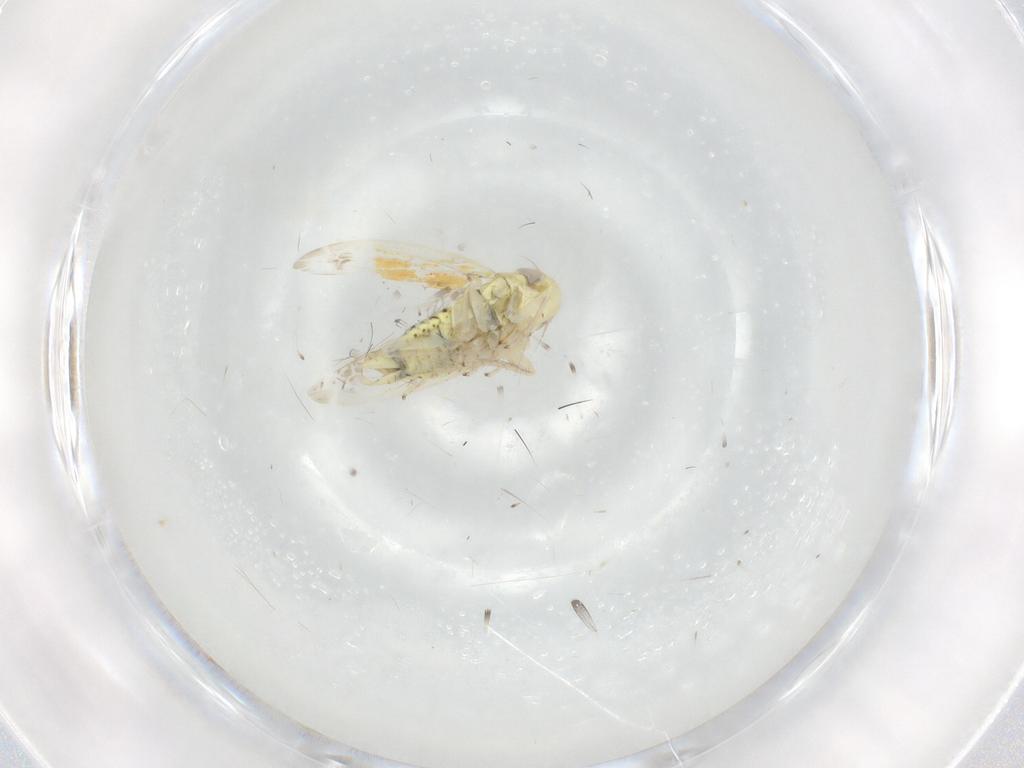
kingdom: Animalia
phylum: Arthropoda
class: Insecta
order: Hemiptera
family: Cicadellidae
